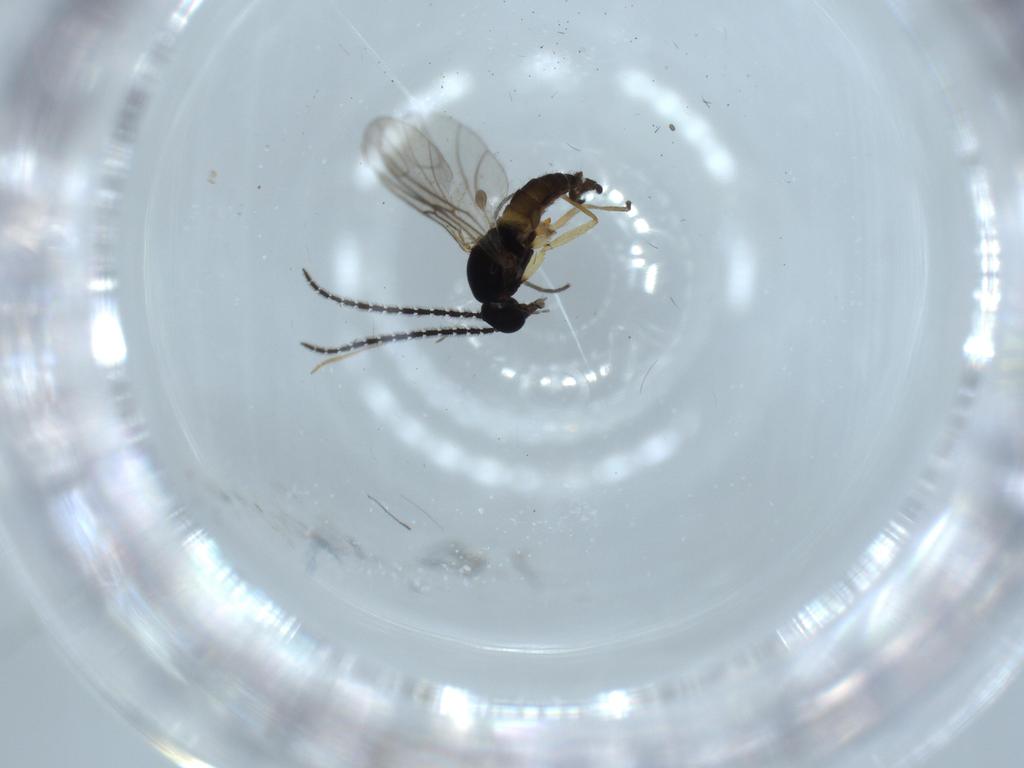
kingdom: Animalia
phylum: Arthropoda
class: Insecta
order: Diptera
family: Sciaridae
